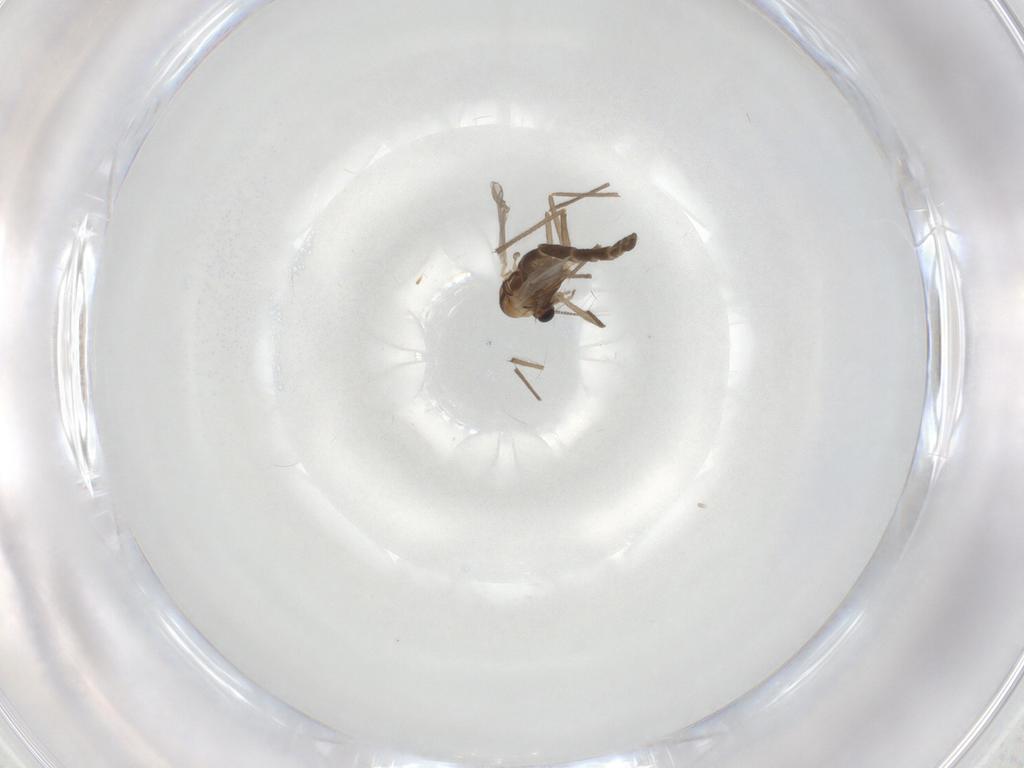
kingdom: Animalia
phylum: Arthropoda
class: Insecta
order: Diptera
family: Chironomidae
